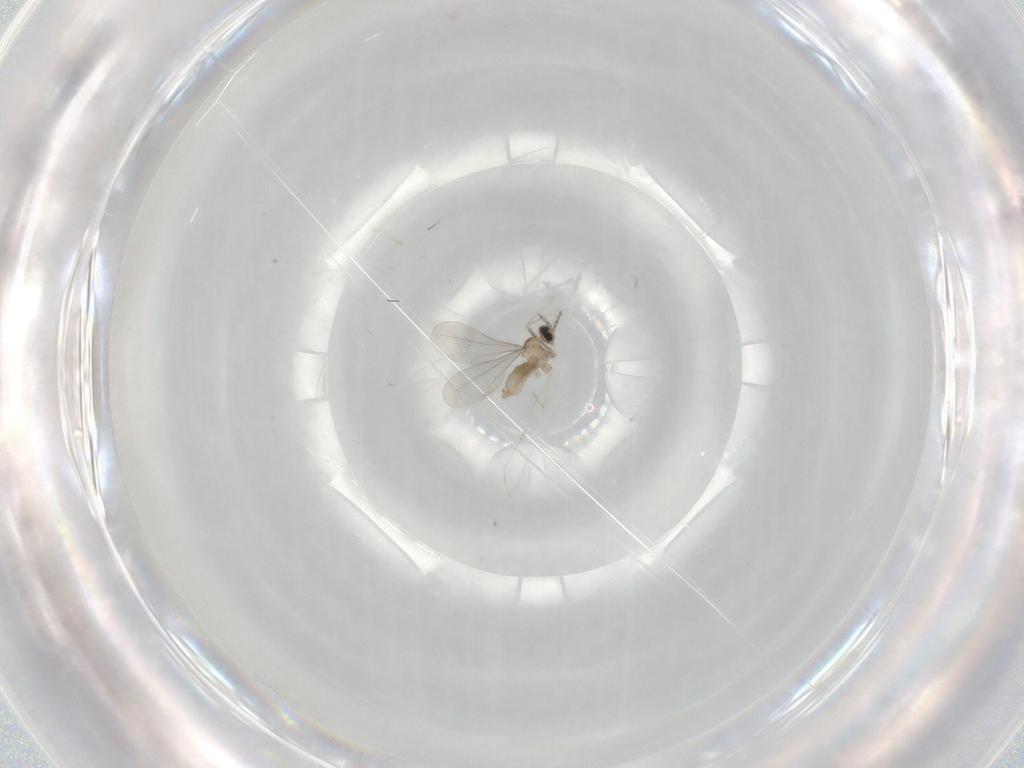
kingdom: Animalia
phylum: Arthropoda
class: Insecta
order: Diptera
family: Cecidomyiidae
